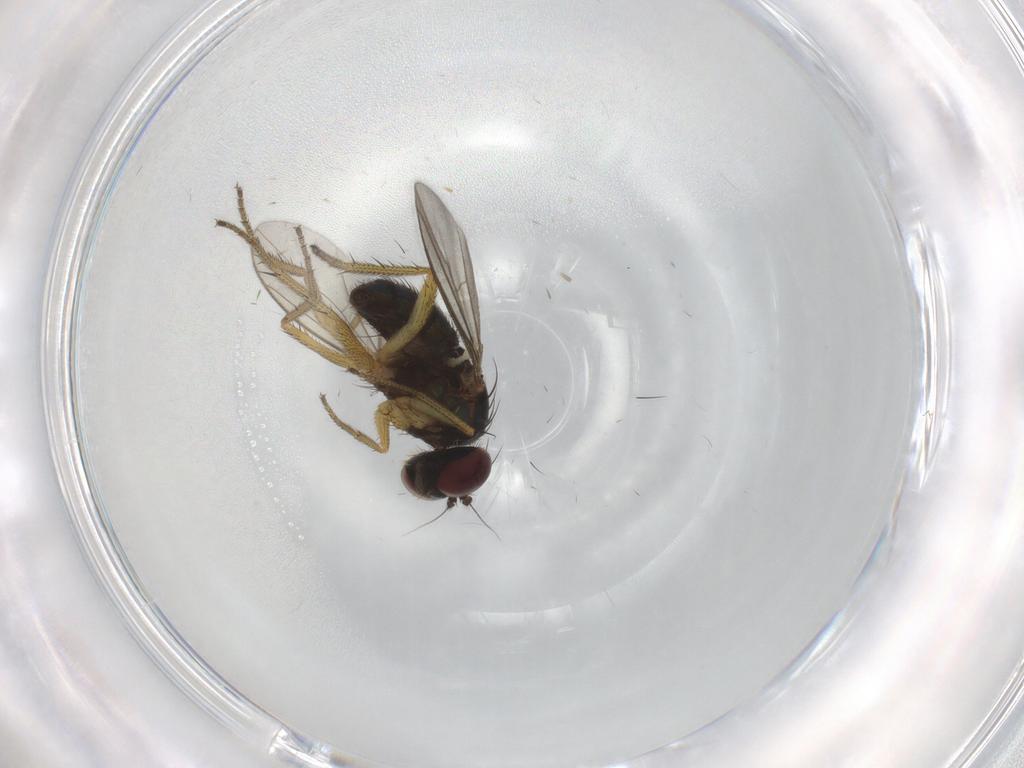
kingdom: Animalia
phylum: Arthropoda
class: Insecta
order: Diptera
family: Chironomidae
